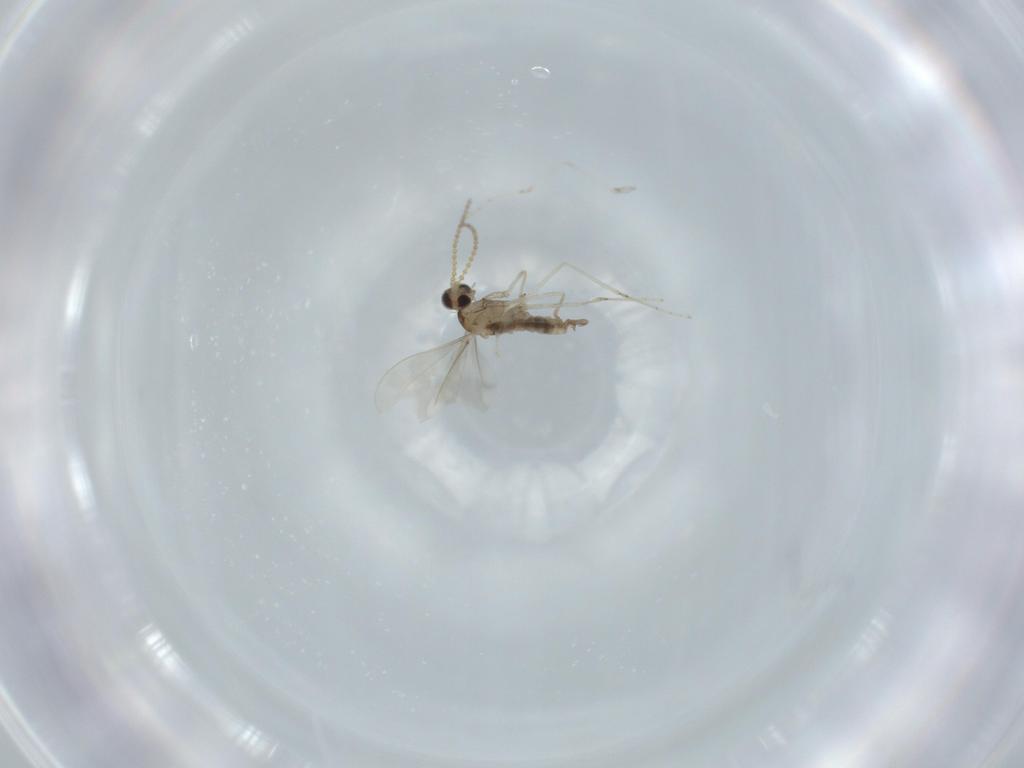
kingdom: Animalia
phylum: Arthropoda
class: Insecta
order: Diptera
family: Cecidomyiidae
